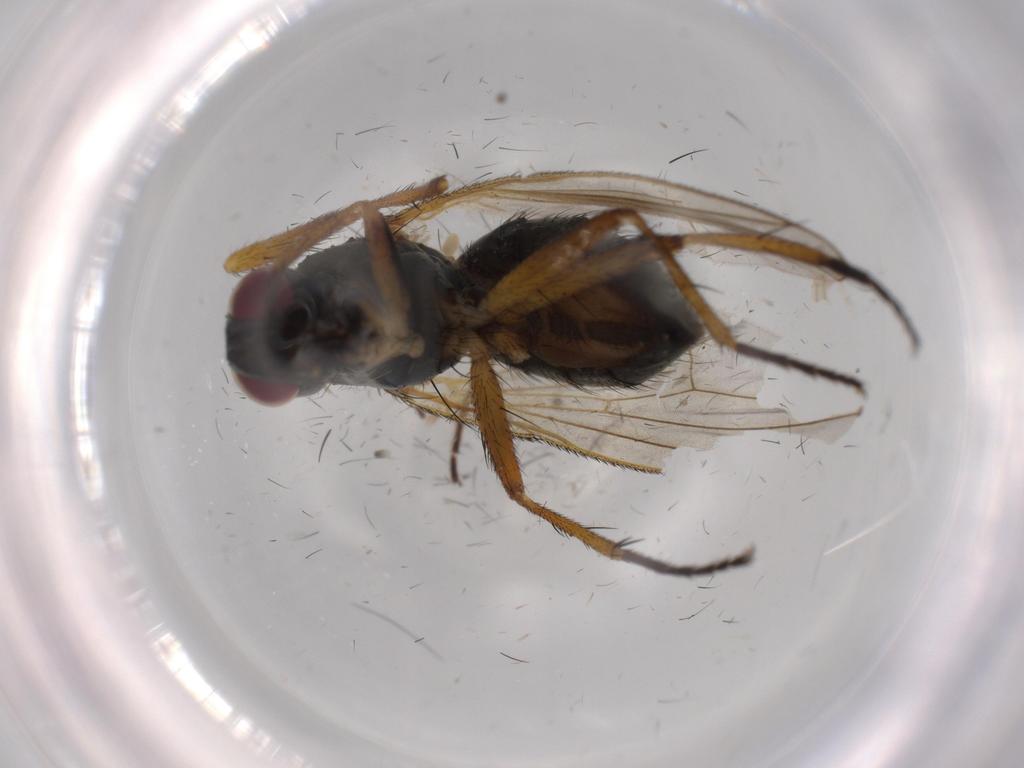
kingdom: Animalia
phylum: Arthropoda
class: Insecta
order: Diptera
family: Muscidae
